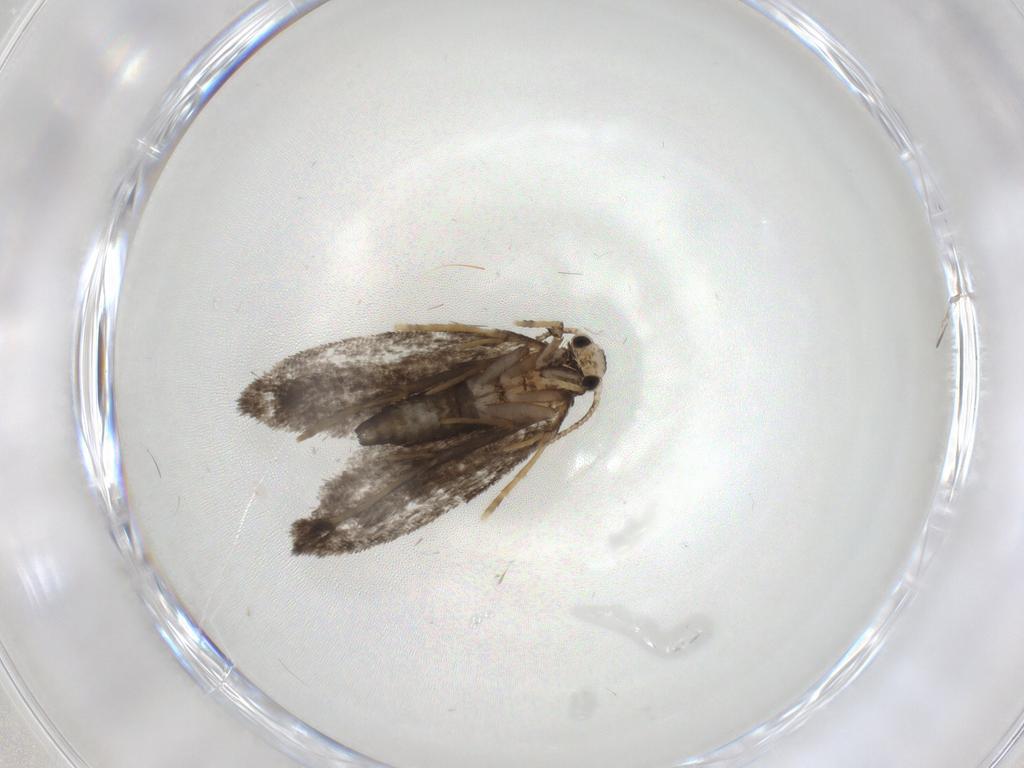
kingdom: Animalia
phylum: Arthropoda
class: Insecta
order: Lepidoptera
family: Psychidae
